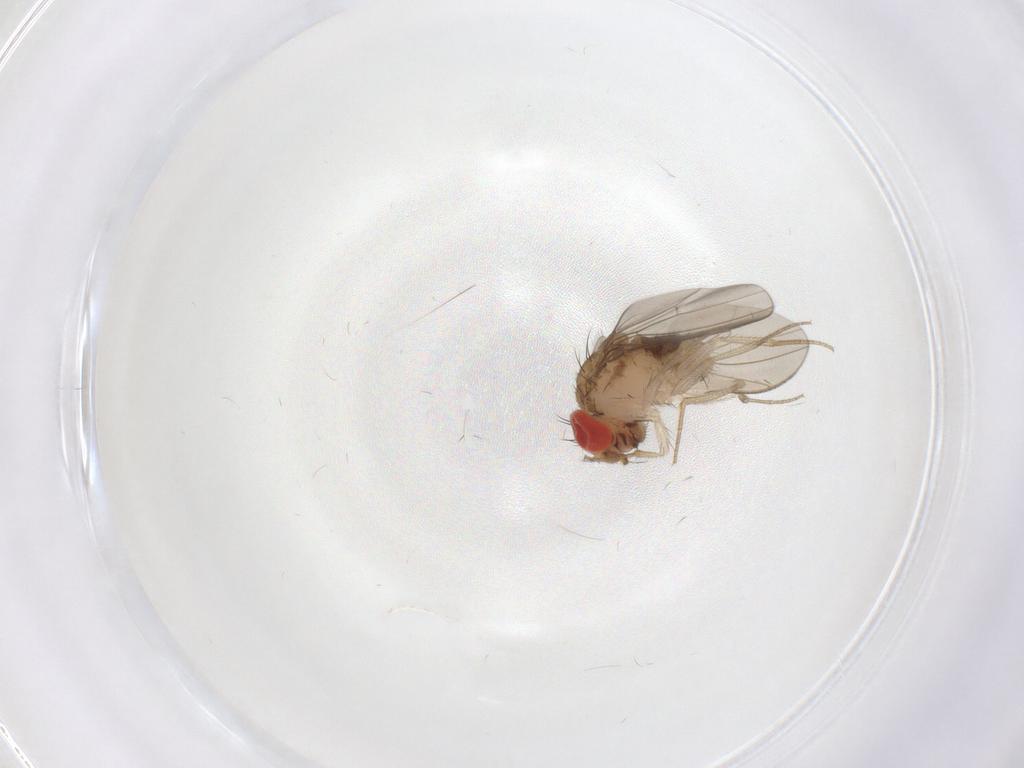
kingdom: Animalia
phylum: Arthropoda
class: Insecta
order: Diptera
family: Drosophilidae
